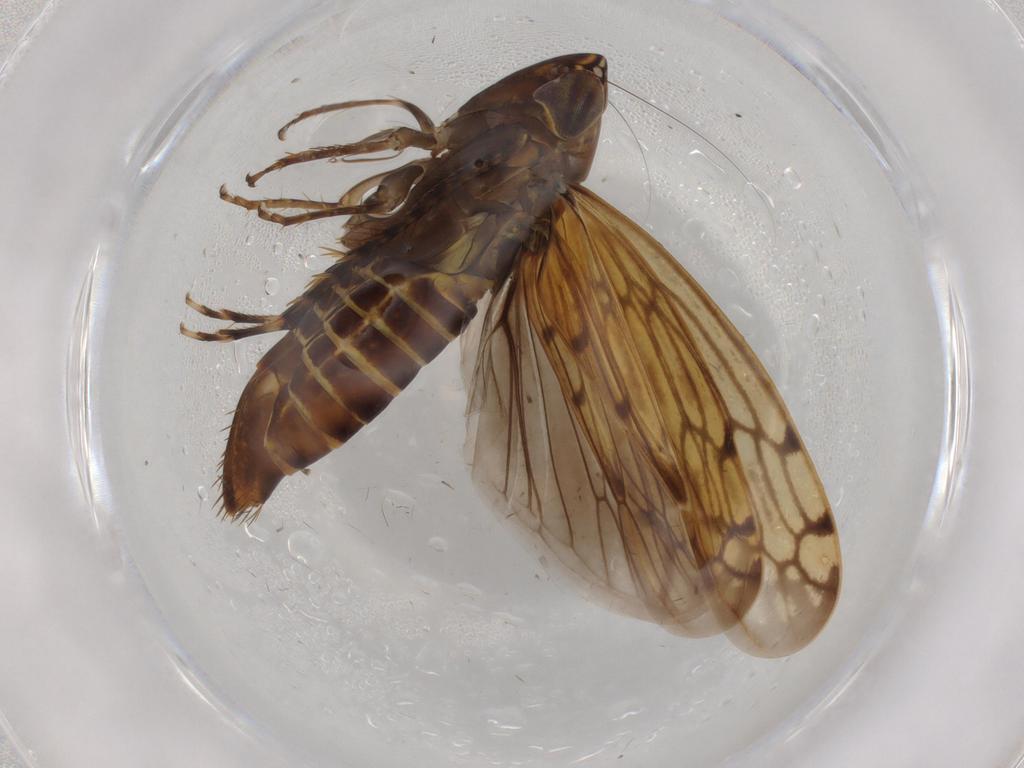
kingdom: Animalia
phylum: Arthropoda
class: Insecta
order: Hemiptera
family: Cicadellidae
